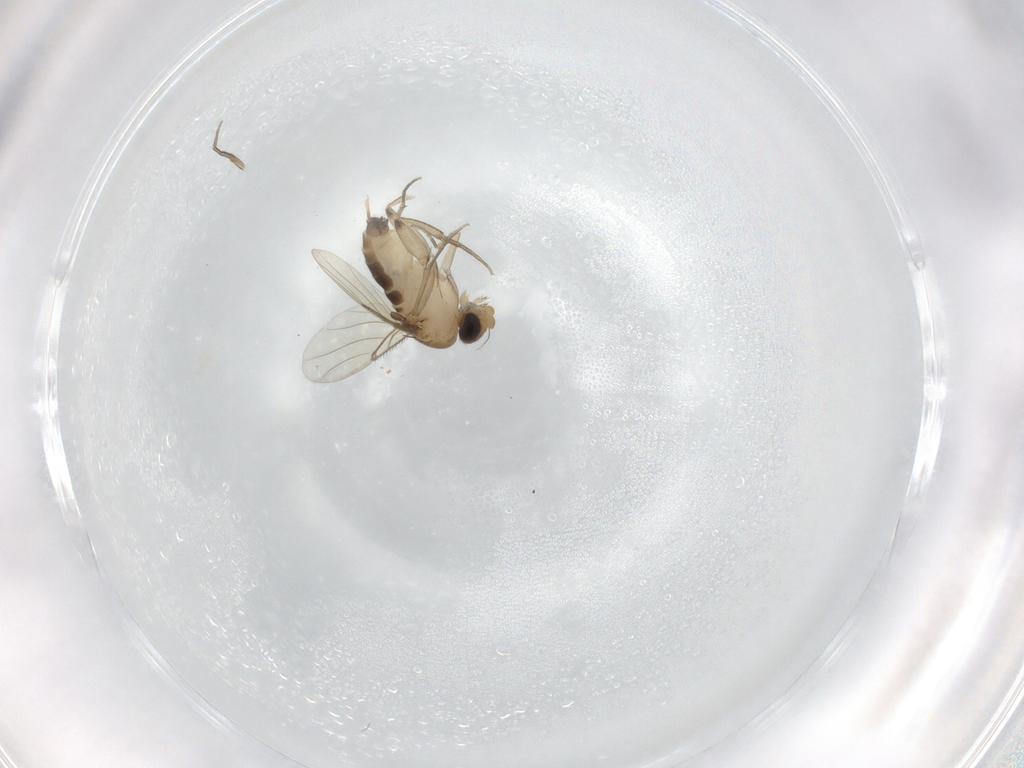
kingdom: Animalia
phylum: Arthropoda
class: Insecta
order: Diptera
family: Phoridae
